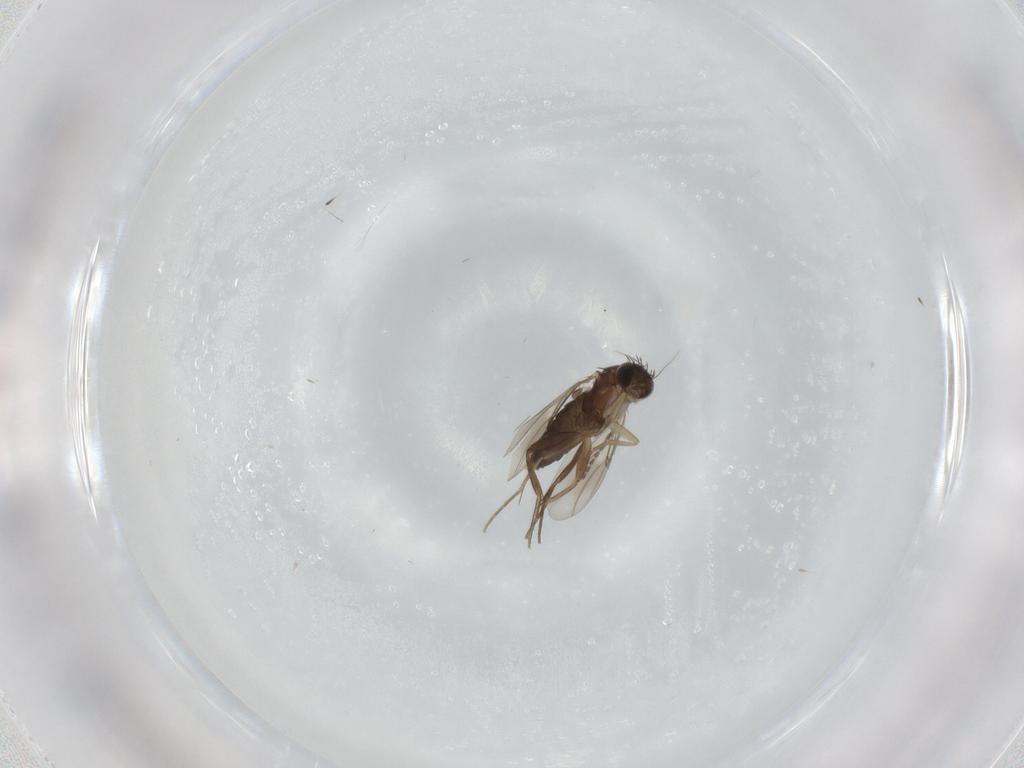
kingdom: Animalia
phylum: Arthropoda
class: Insecta
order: Diptera
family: Phoridae
